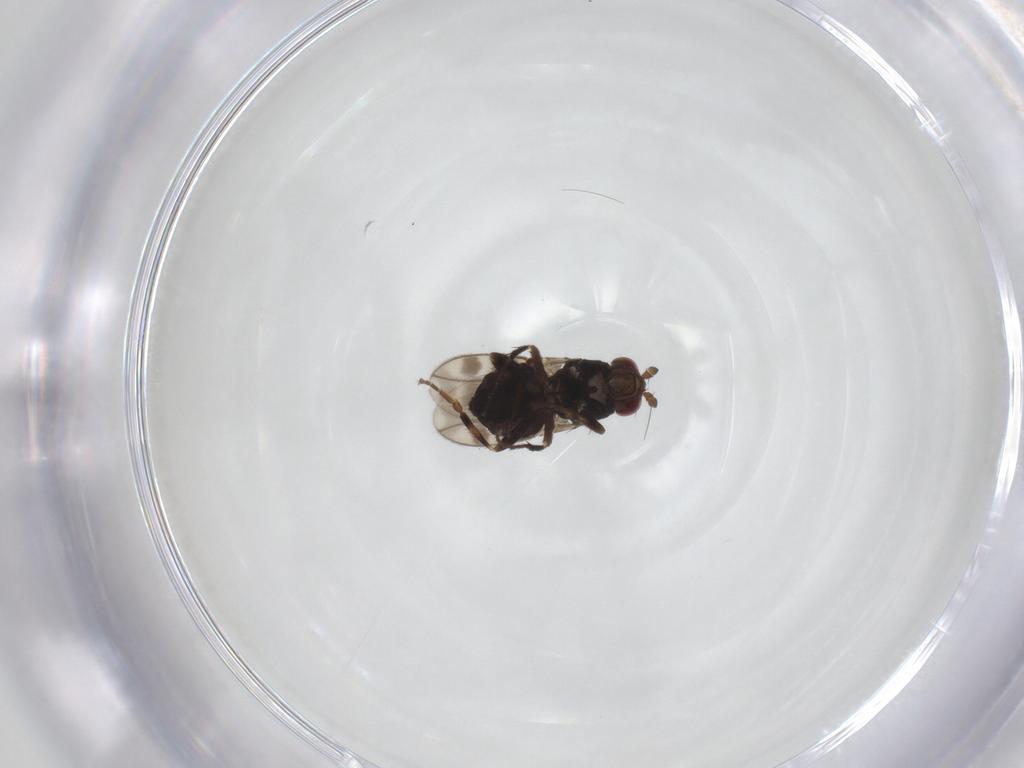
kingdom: Animalia
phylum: Arthropoda
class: Insecta
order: Diptera
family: Sphaeroceridae
